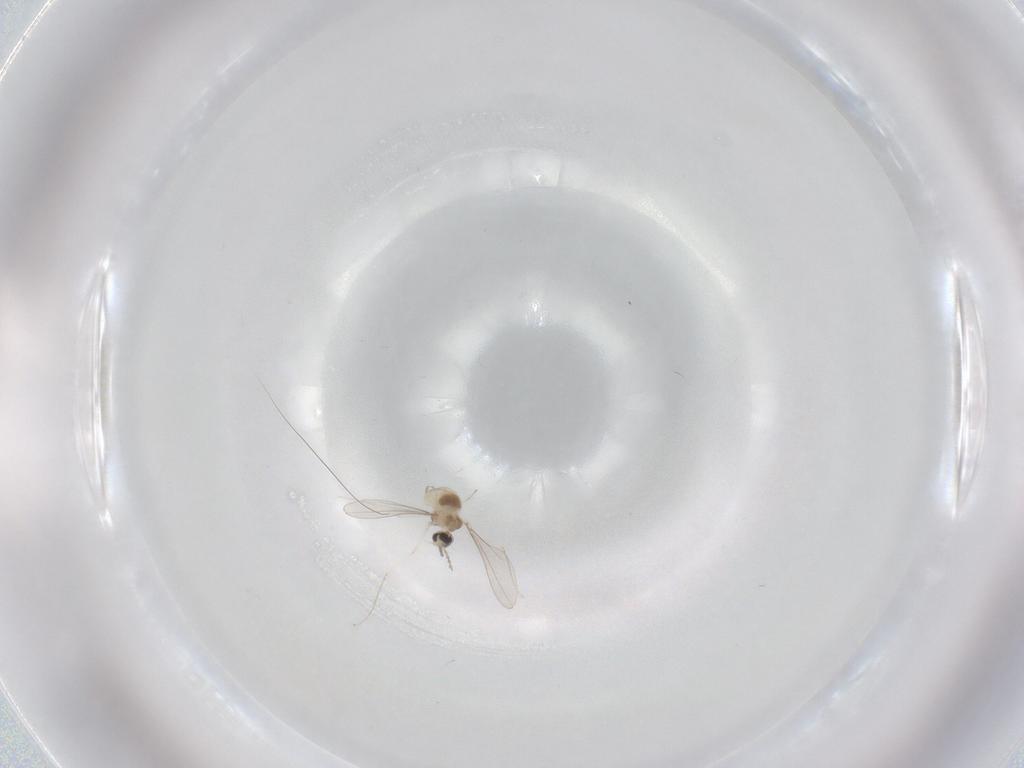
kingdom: Animalia
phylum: Arthropoda
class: Insecta
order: Diptera
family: Cecidomyiidae
